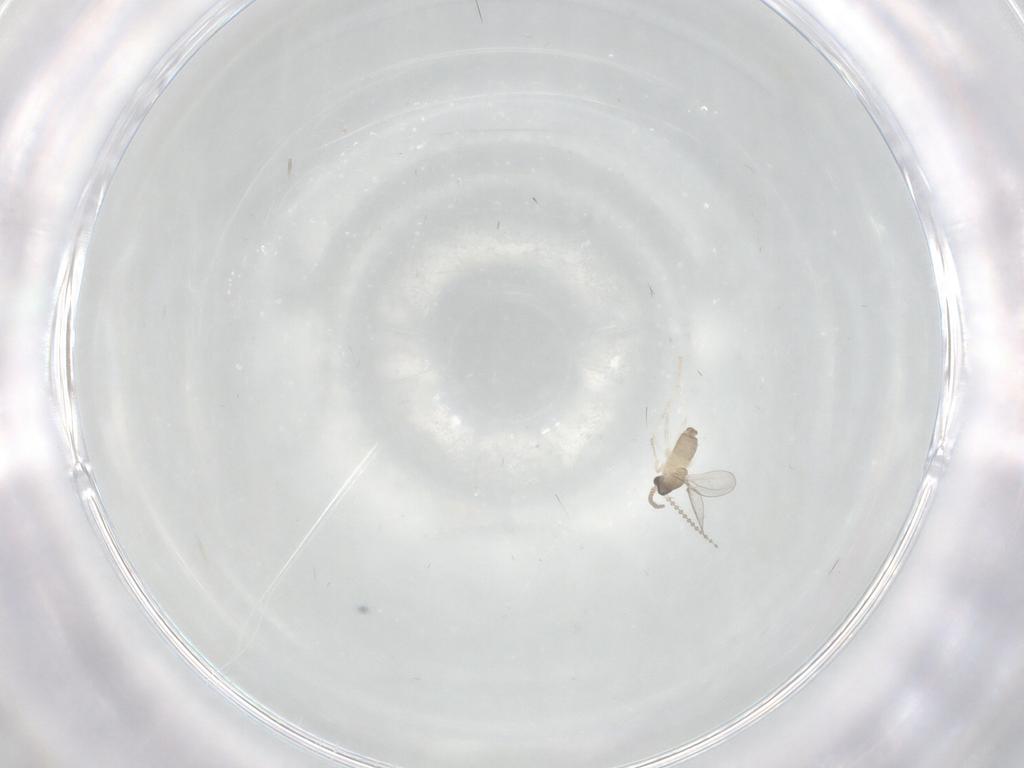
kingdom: Animalia
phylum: Arthropoda
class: Insecta
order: Diptera
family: Cecidomyiidae
